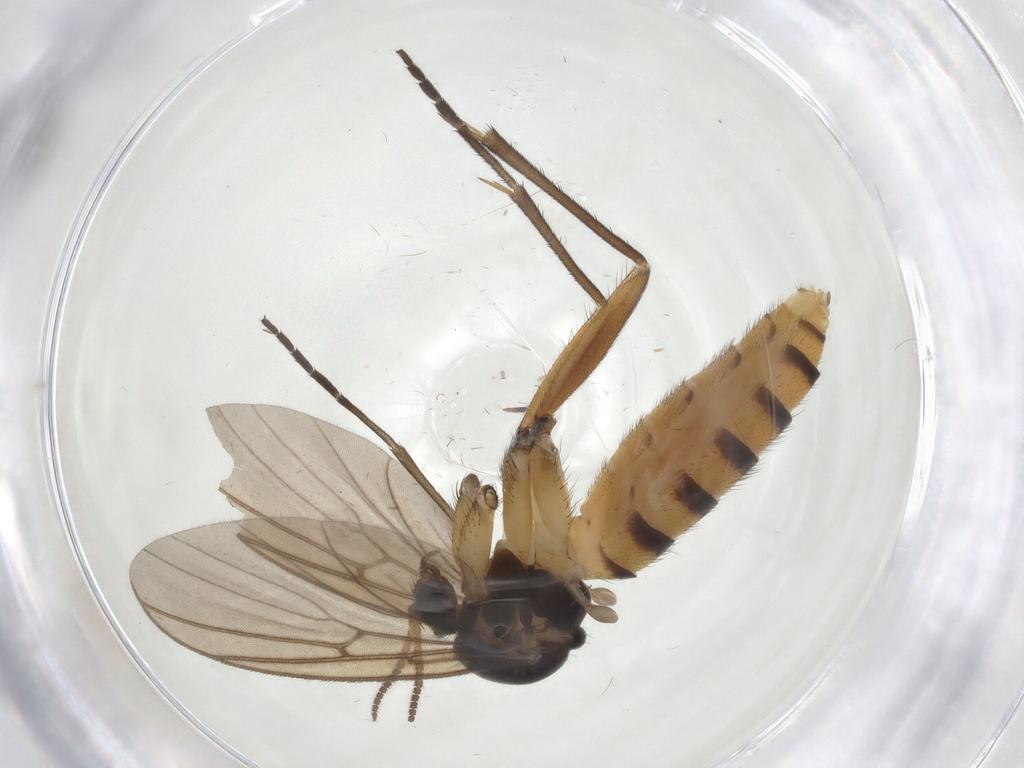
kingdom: Animalia
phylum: Arthropoda
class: Insecta
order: Diptera
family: Mycetophilidae
